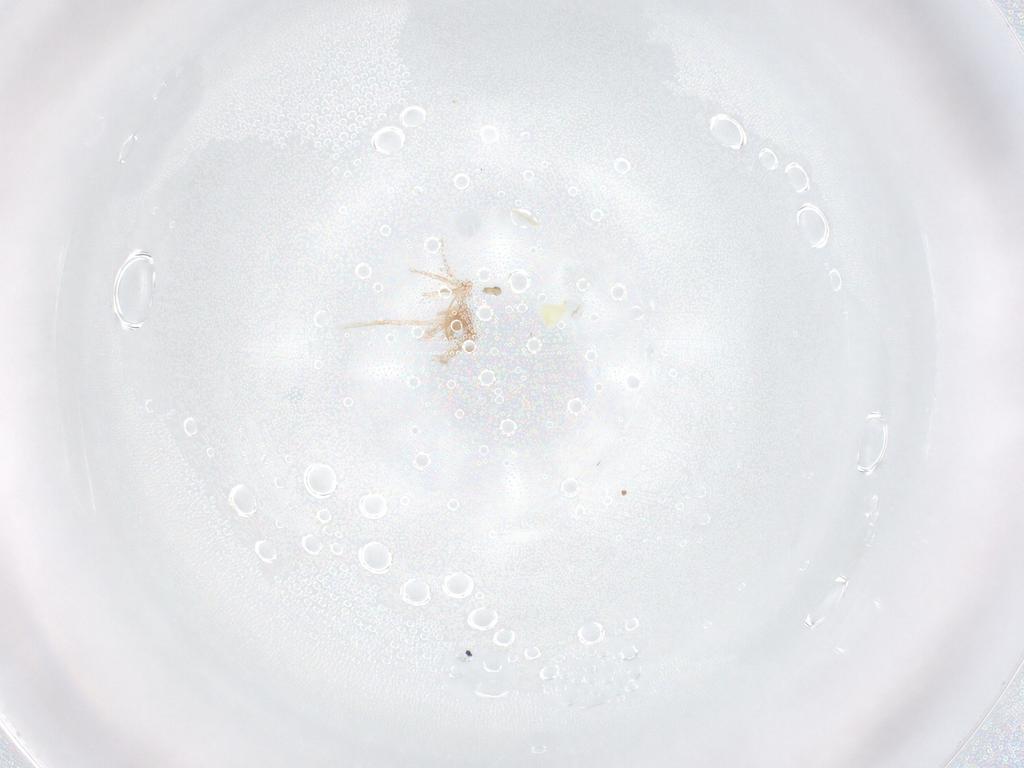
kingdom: Animalia
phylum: Arthropoda
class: Insecta
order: Hemiptera
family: Aleyrodidae
